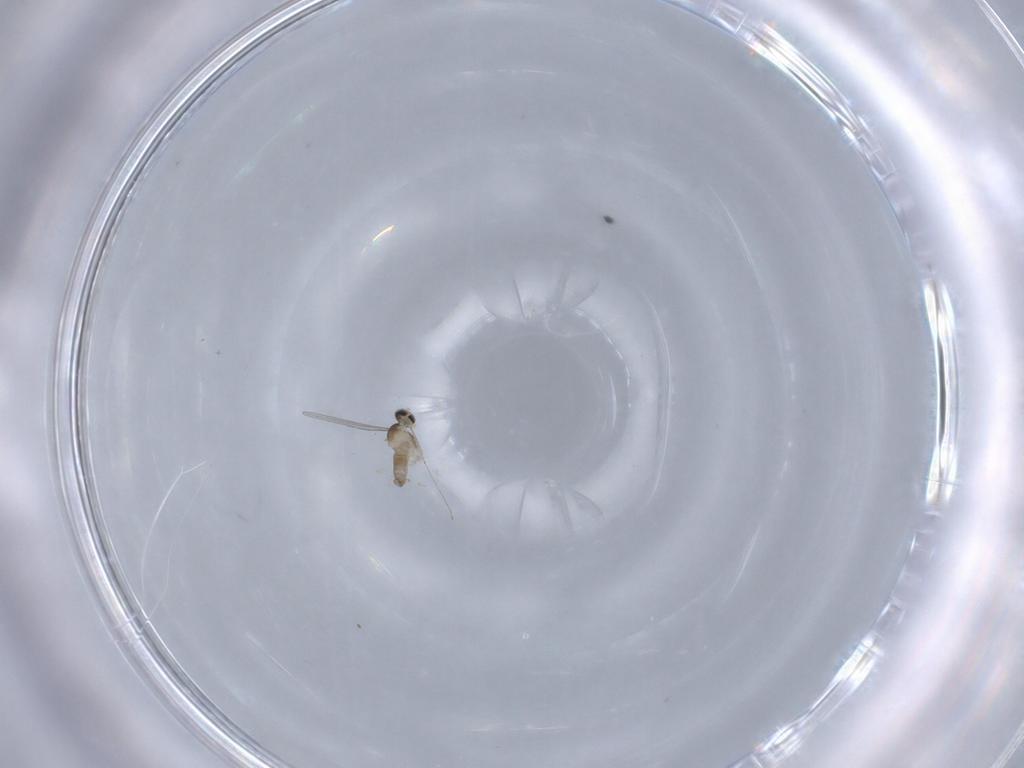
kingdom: Animalia
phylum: Arthropoda
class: Insecta
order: Diptera
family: Cecidomyiidae
